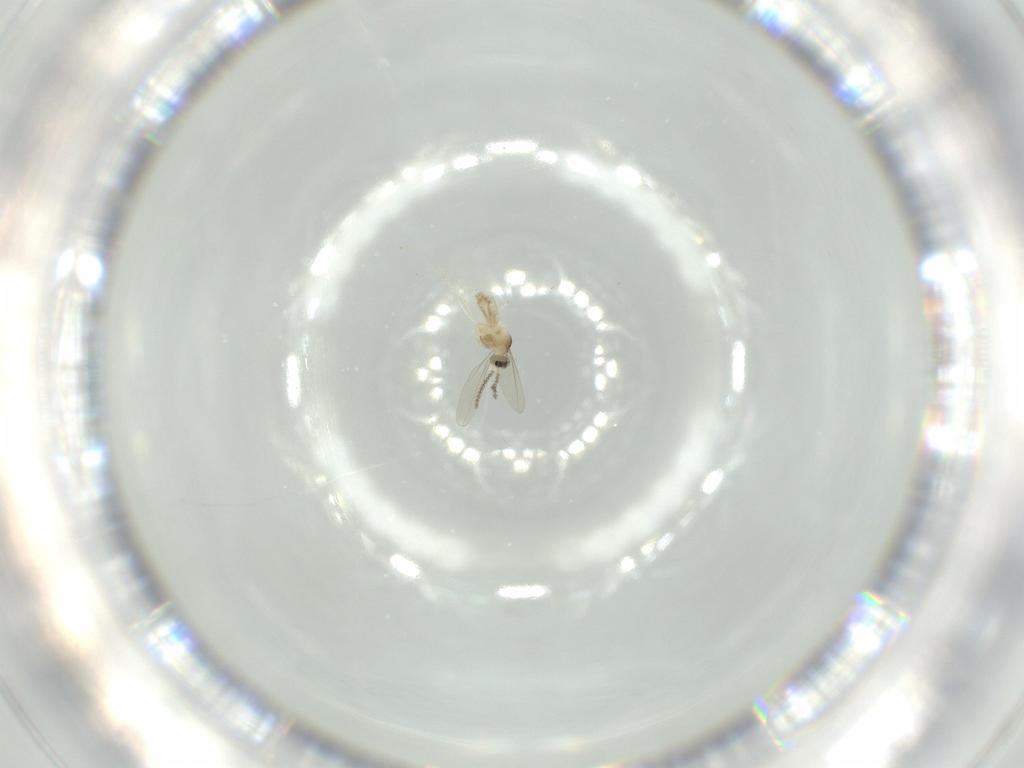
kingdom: Animalia
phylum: Arthropoda
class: Insecta
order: Diptera
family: Cecidomyiidae
